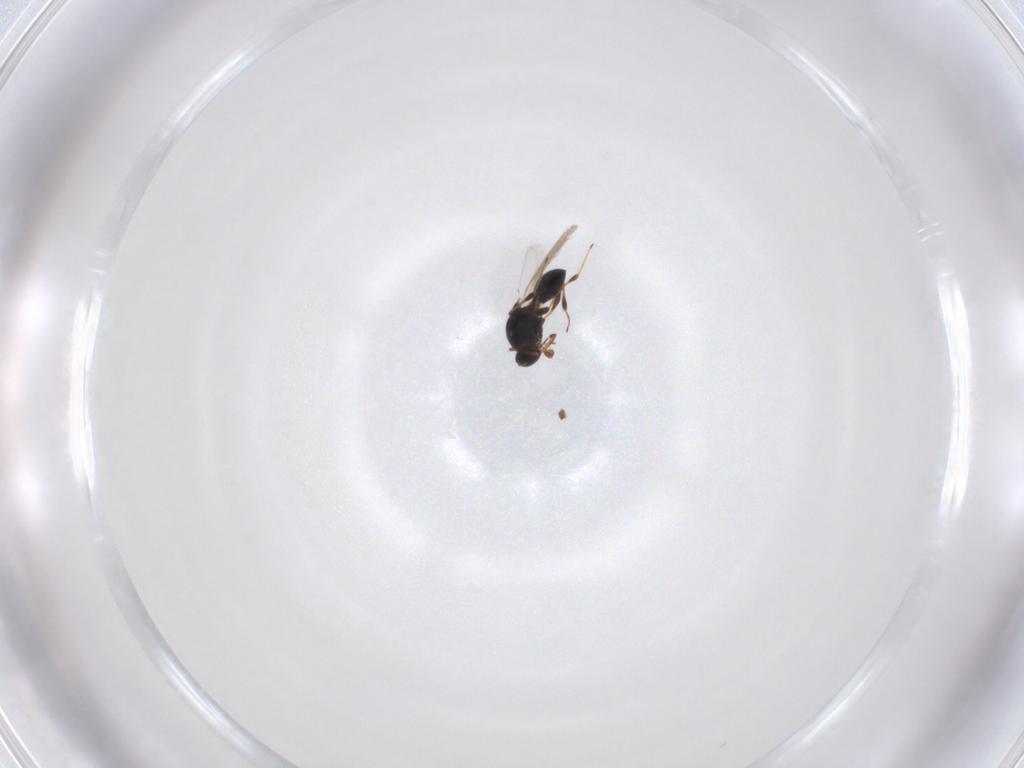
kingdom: Animalia
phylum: Arthropoda
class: Insecta
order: Hymenoptera
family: Platygastridae
